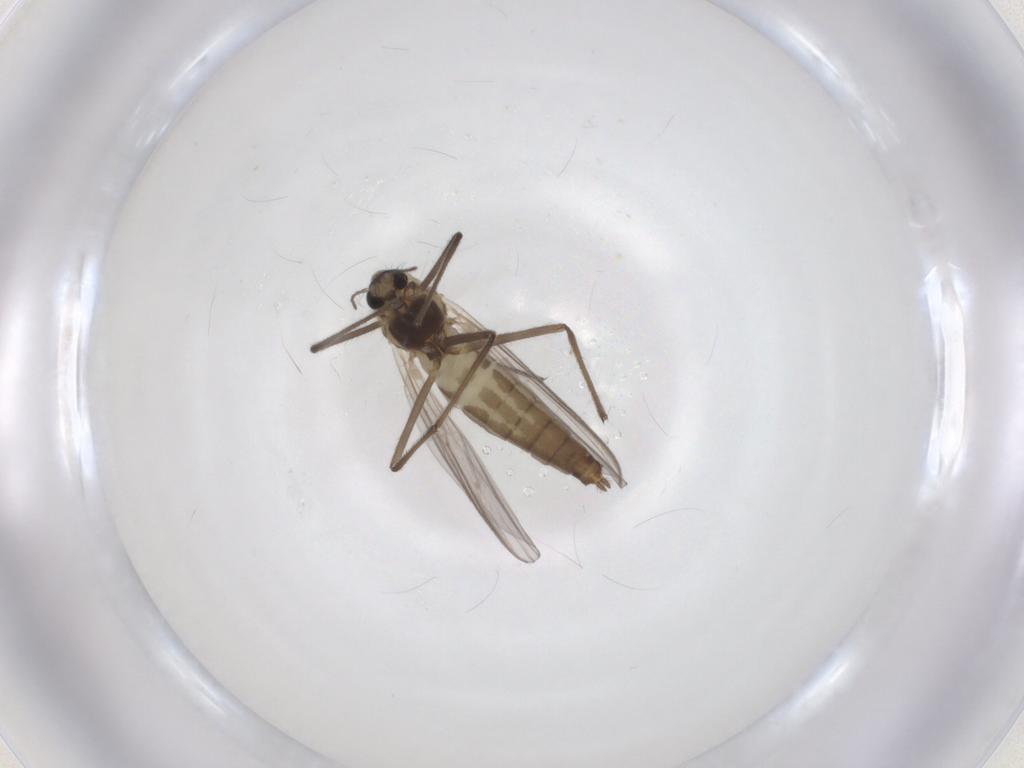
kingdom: Animalia
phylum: Arthropoda
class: Insecta
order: Diptera
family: Chironomidae
